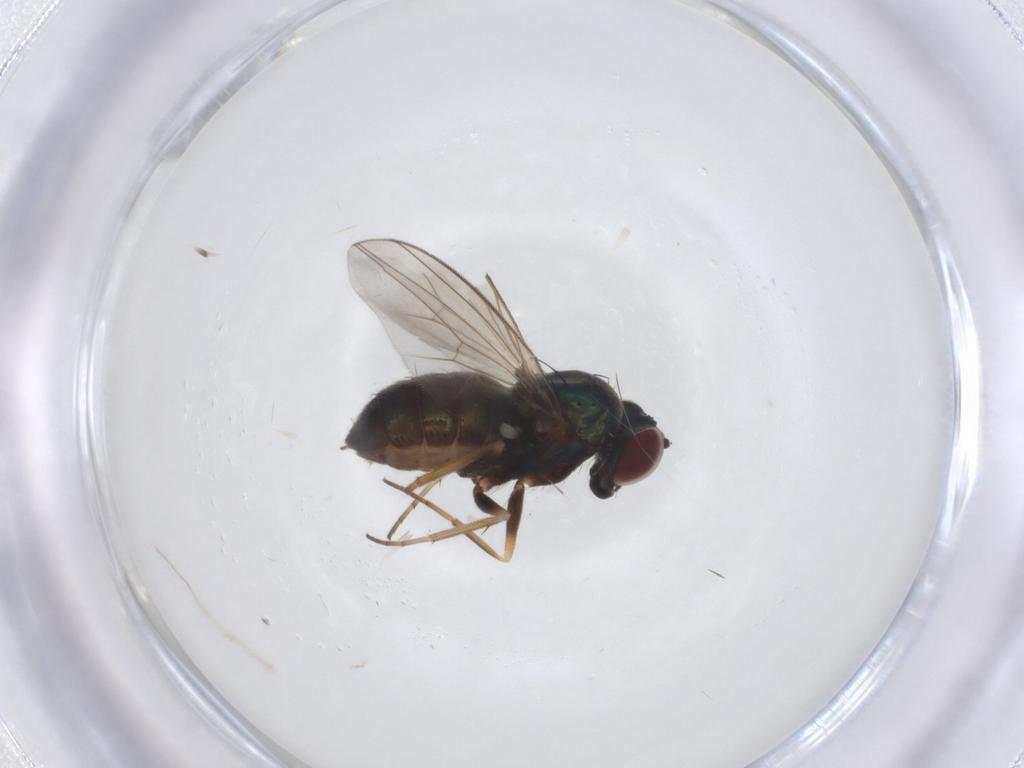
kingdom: Animalia
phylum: Arthropoda
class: Insecta
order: Diptera
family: Dolichopodidae
